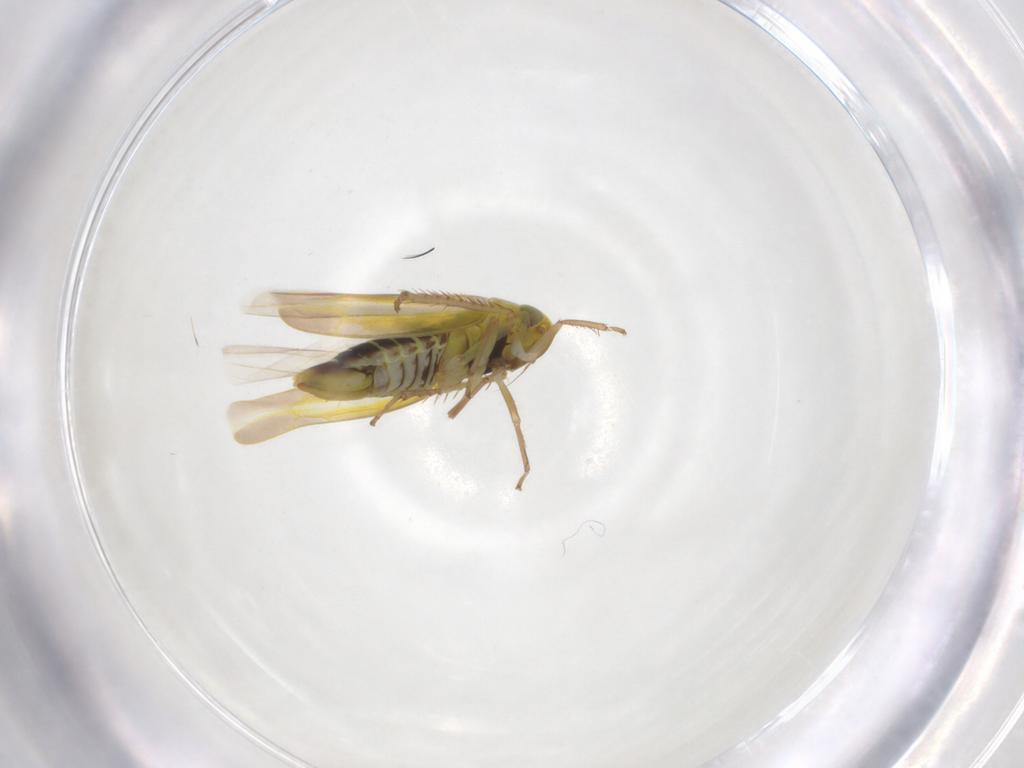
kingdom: Animalia
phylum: Arthropoda
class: Insecta
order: Hemiptera
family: Cicadellidae
